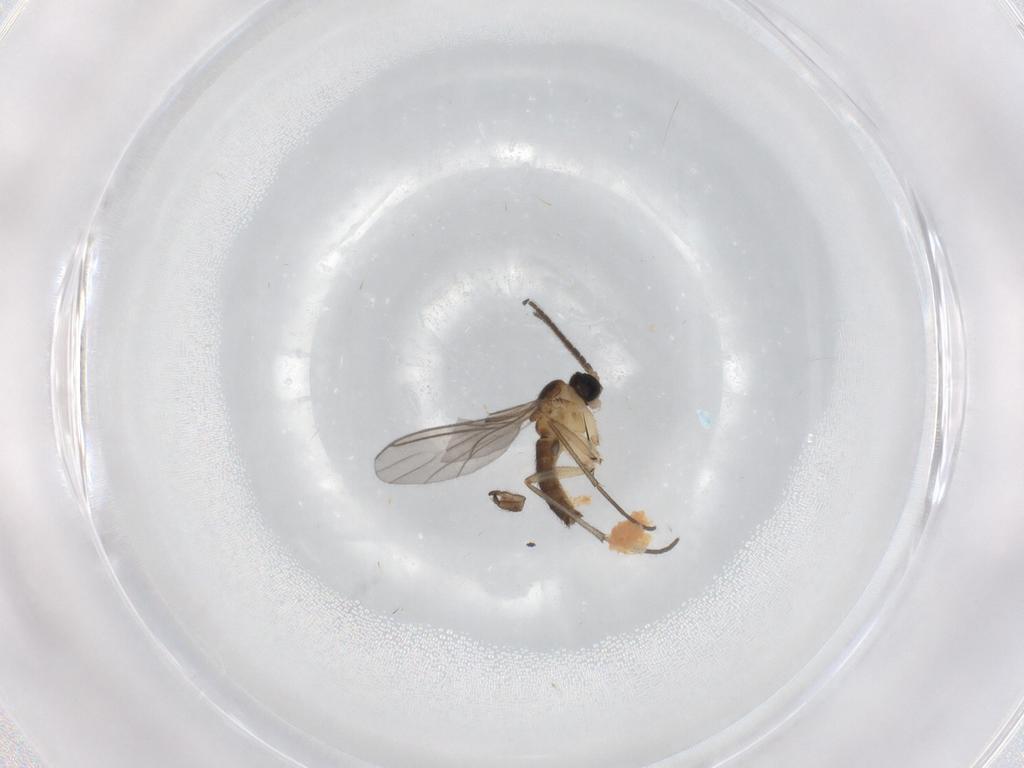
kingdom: Animalia
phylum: Arthropoda
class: Insecta
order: Diptera
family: Sciaridae
